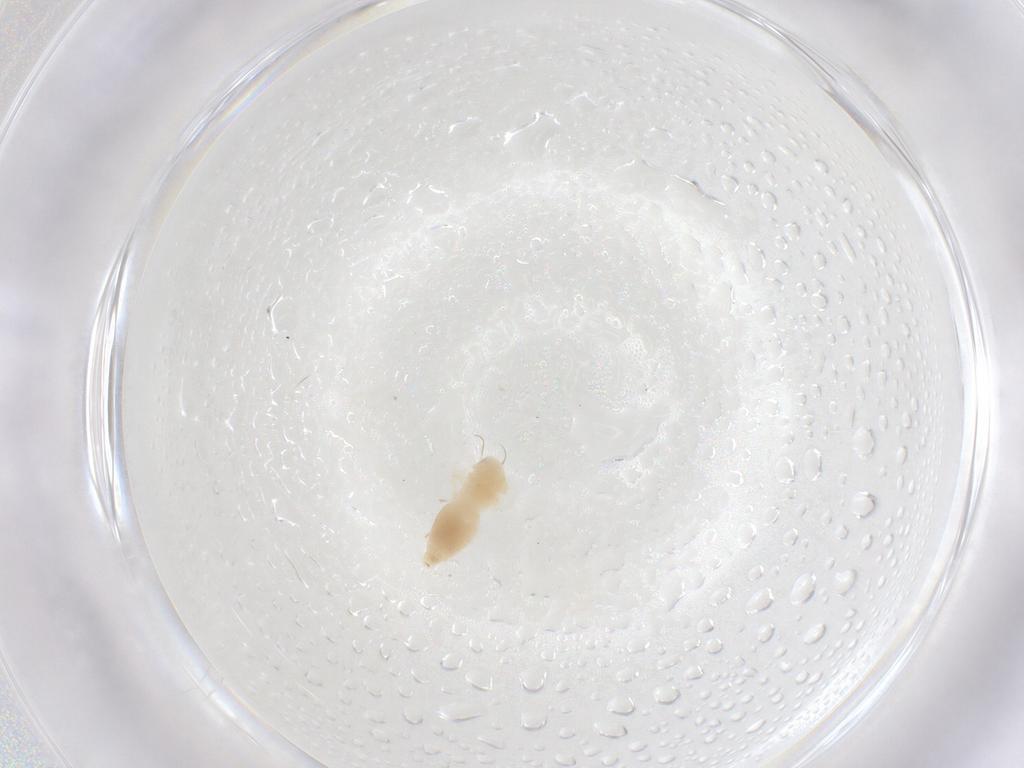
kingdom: Animalia
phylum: Arthropoda
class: Insecta
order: Hemiptera
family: Aleyrodidae
